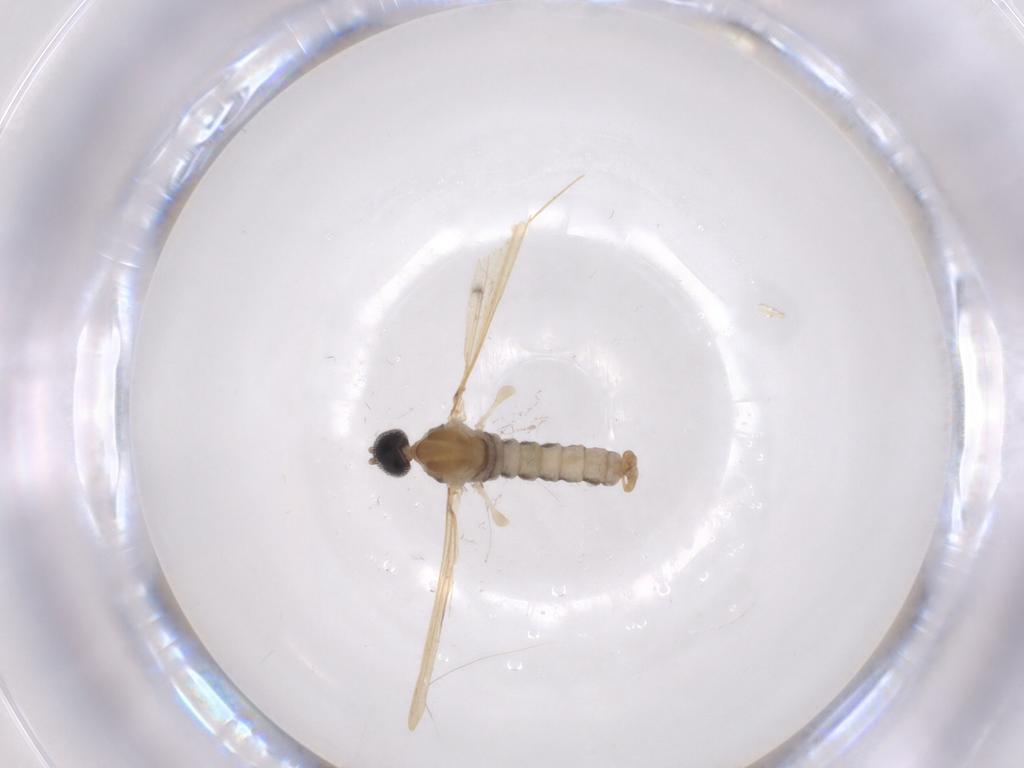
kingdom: Animalia
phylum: Arthropoda
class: Insecta
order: Diptera
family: Cecidomyiidae
